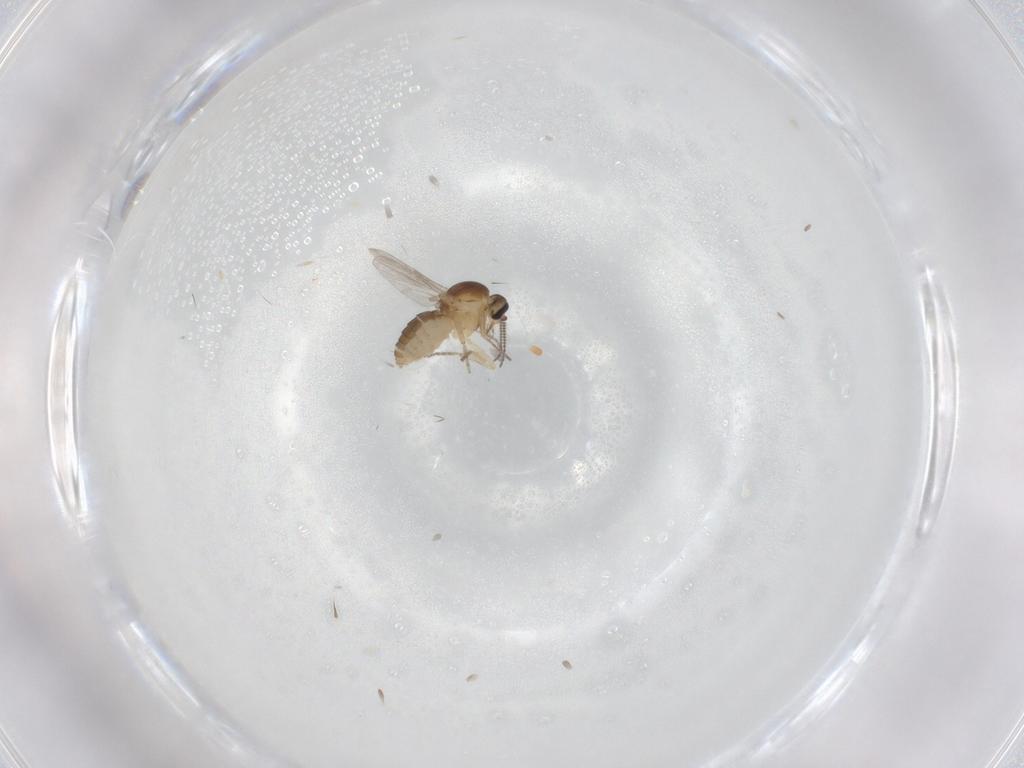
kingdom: Animalia
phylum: Arthropoda
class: Insecta
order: Diptera
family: Ceratopogonidae
